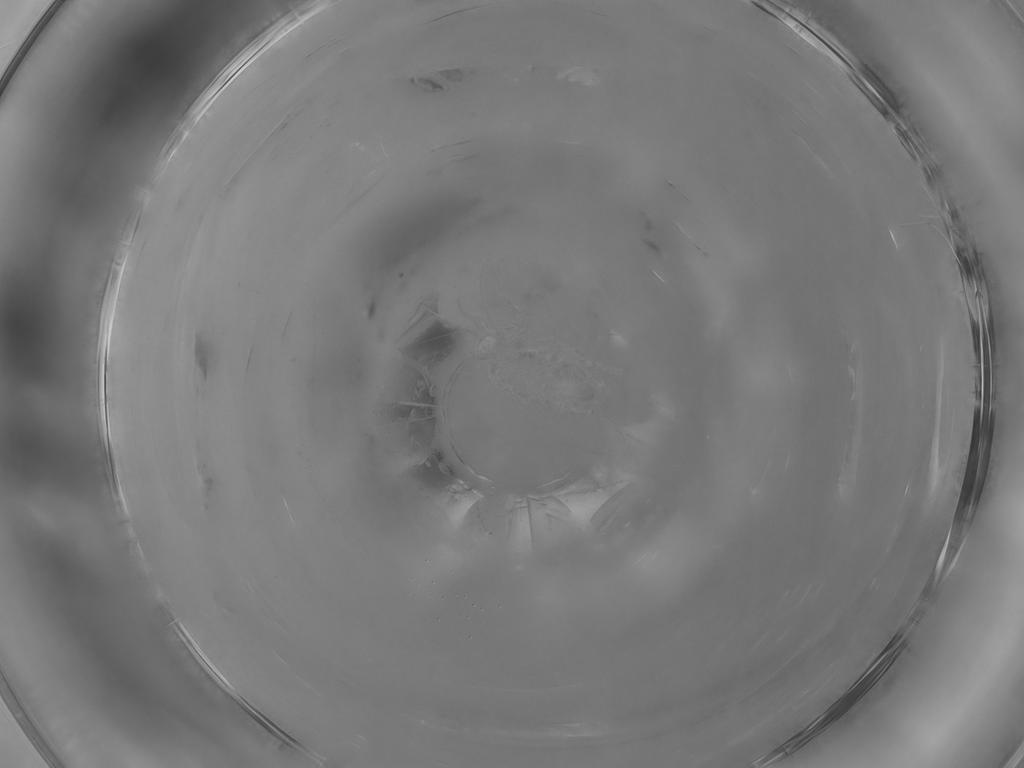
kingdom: Animalia
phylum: Arthropoda
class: Insecta
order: Diptera
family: Sphaeroceridae
